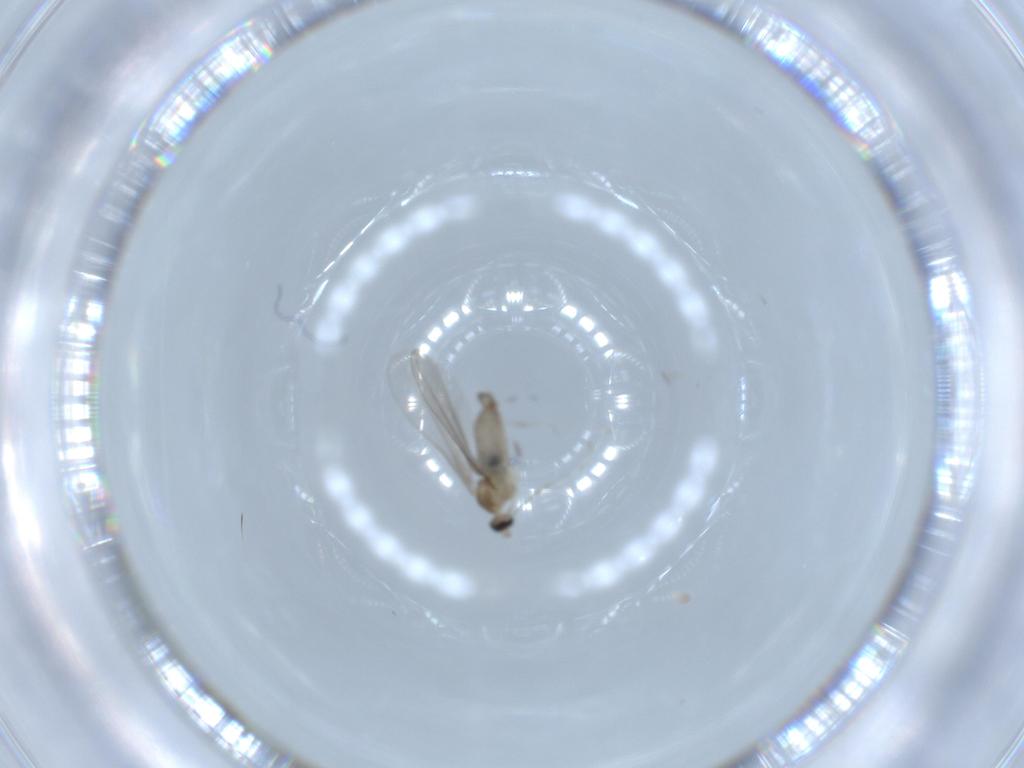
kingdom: Animalia
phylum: Arthropoda
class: Insecta
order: Diptera
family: Cecidomyiidae
